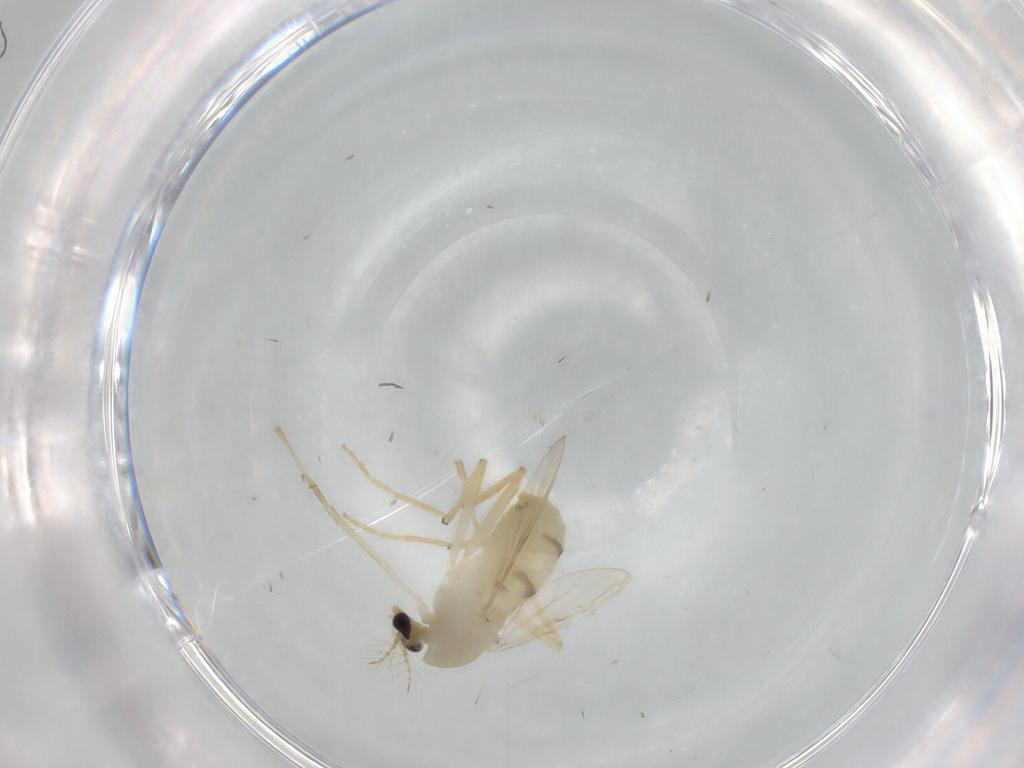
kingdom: Animalia
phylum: Arthropoda
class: Insecta
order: Diptera
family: Chironomidae
